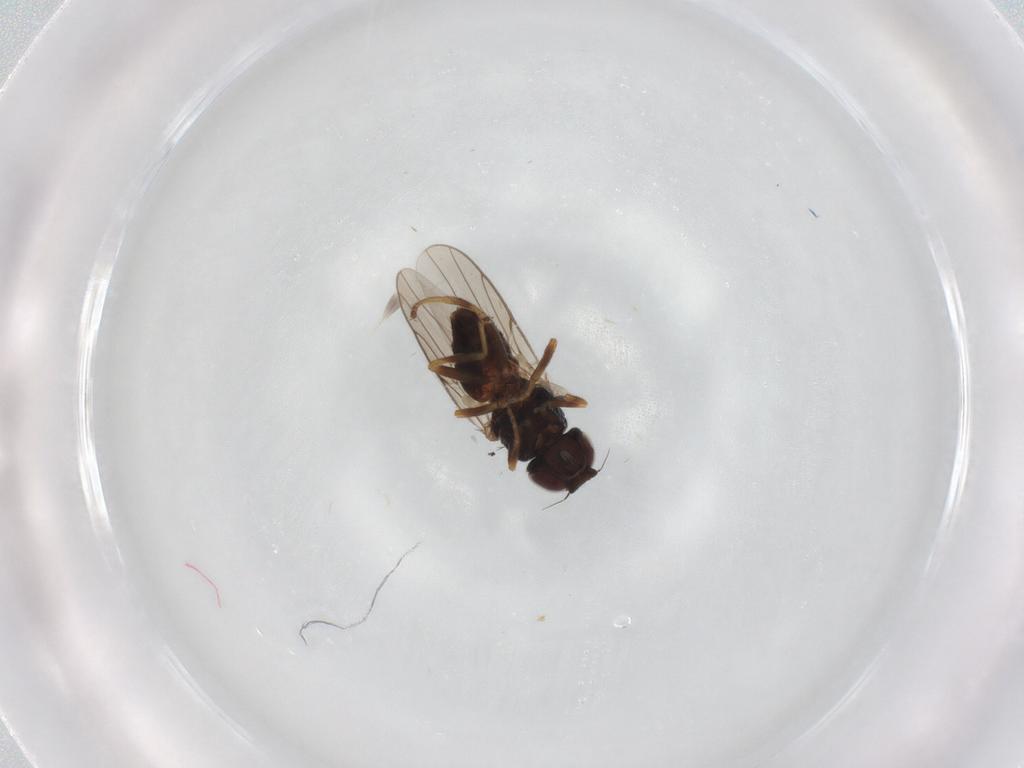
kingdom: Animalia
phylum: Arthropoda
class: Insecta
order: Diptera
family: Chloropidae
